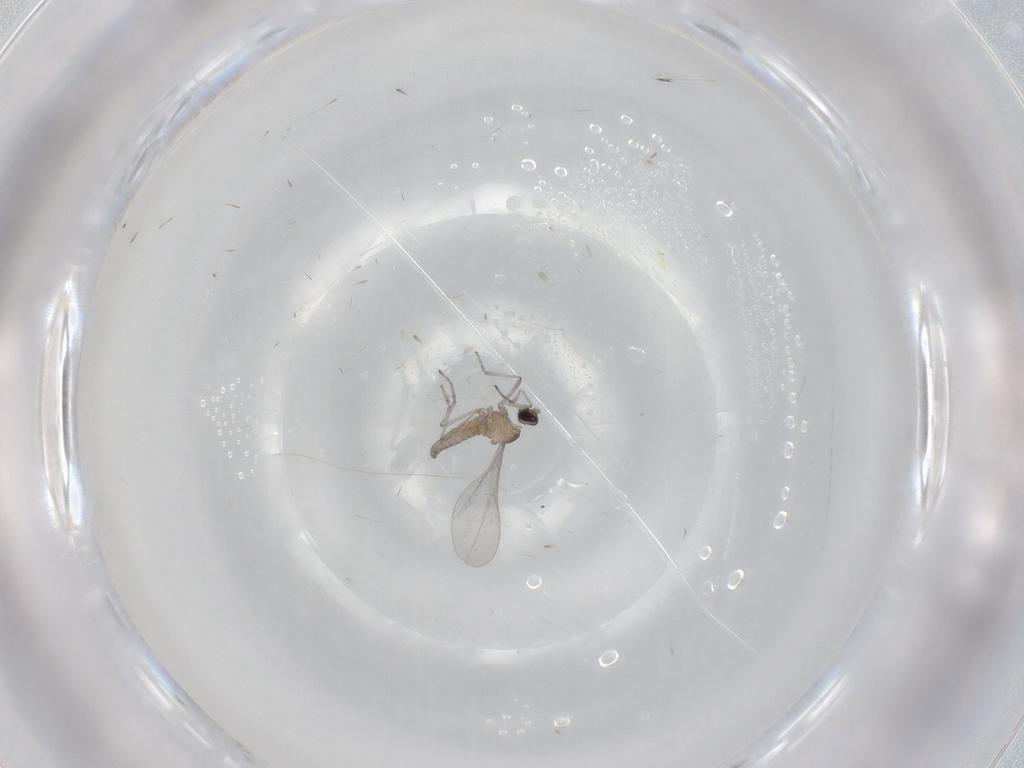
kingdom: Animalia
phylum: Arthropoda
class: Insecta
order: Diptera
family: Cecidomyiidae
